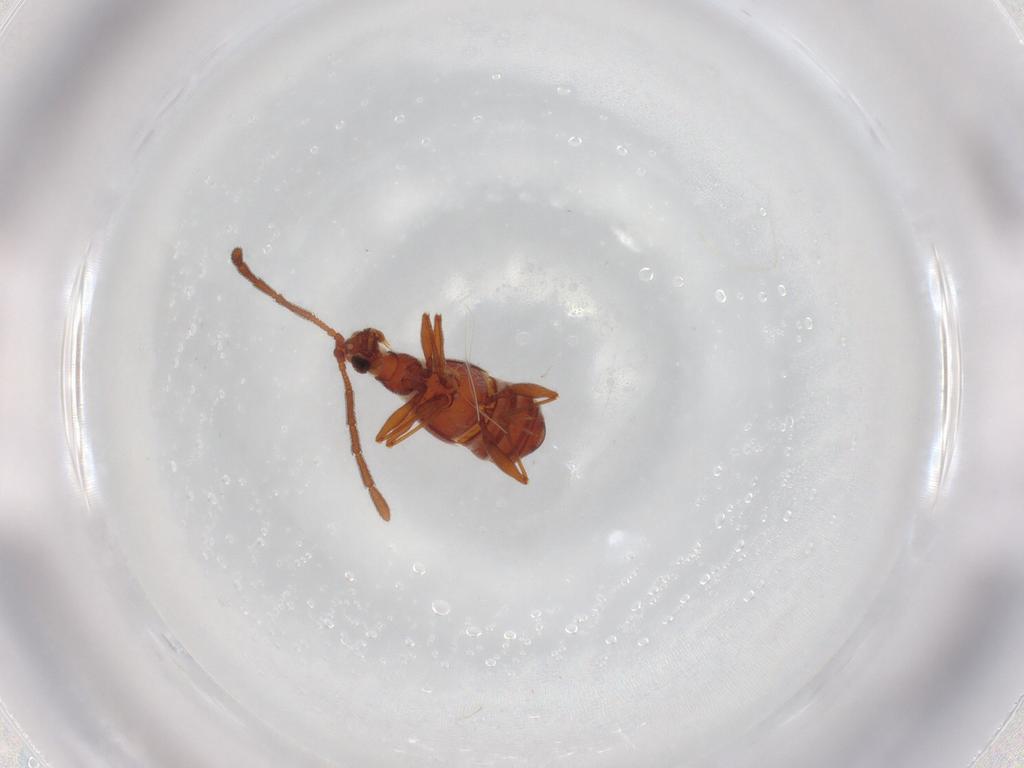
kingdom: Animalia
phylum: Arthropoda
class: Insecta
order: Coleoptera
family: Staphylinidae
